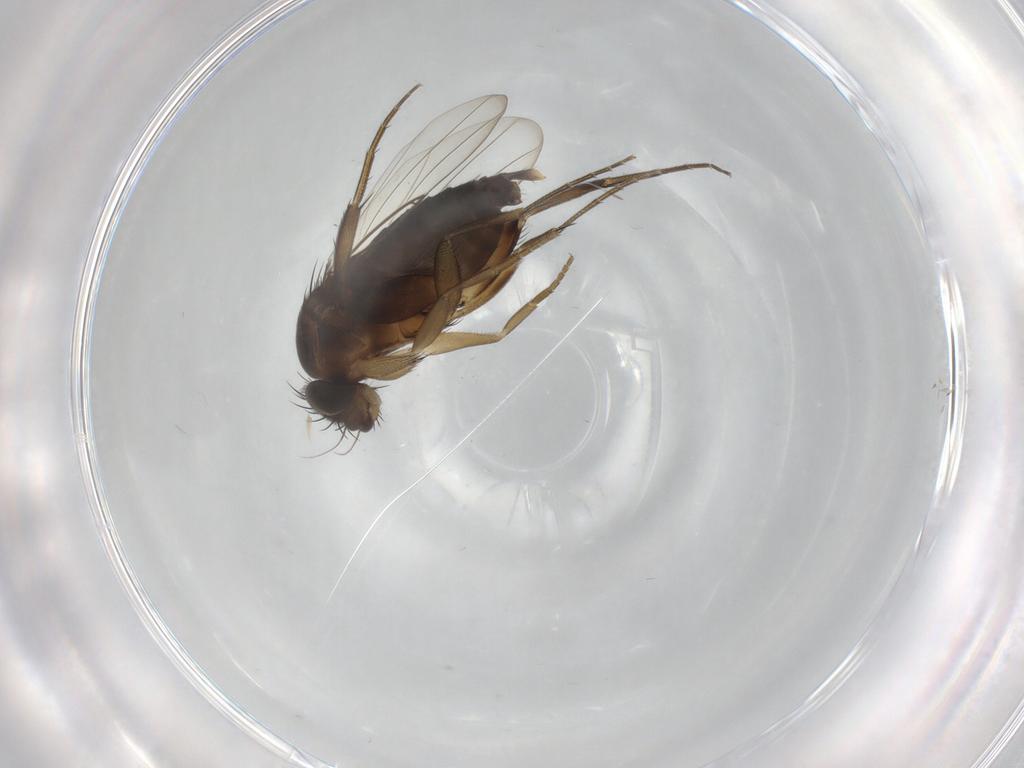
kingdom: Animalia
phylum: Arthropoda
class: Insecta
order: Diptera
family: Phoridae
